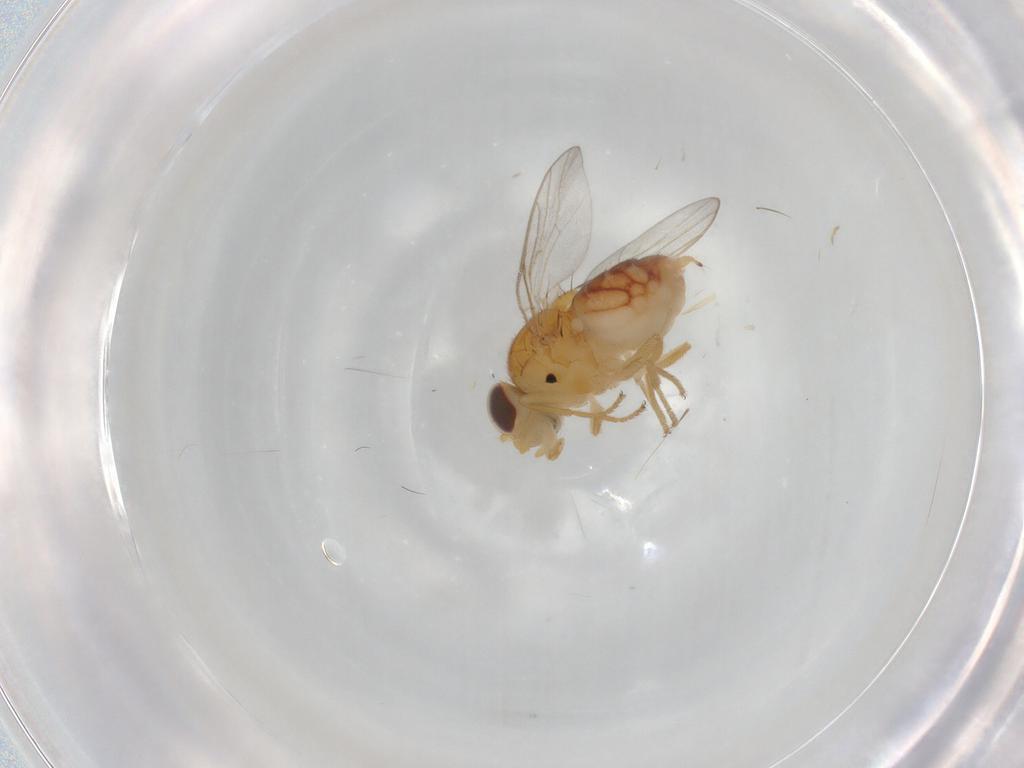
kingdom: Animalia
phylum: Arthropoda
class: Insecta
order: Diptera
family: Chloropidae
